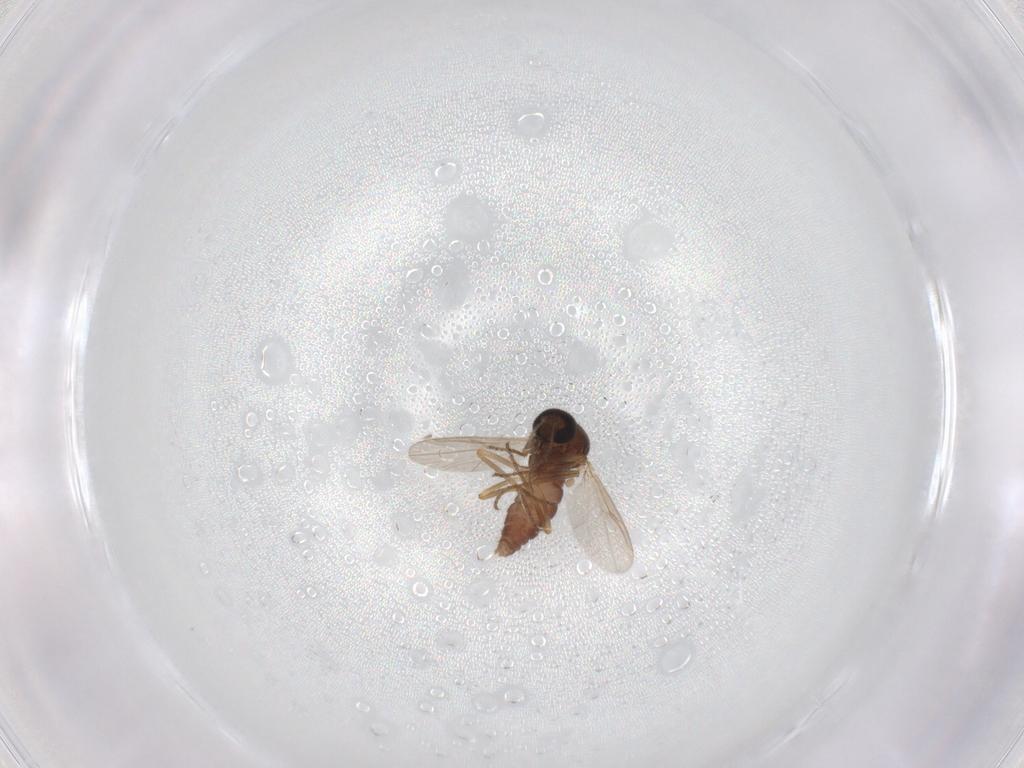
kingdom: Animalia
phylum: Arthropoda
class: Insecta
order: Diptera
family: Ceratopogonidae
